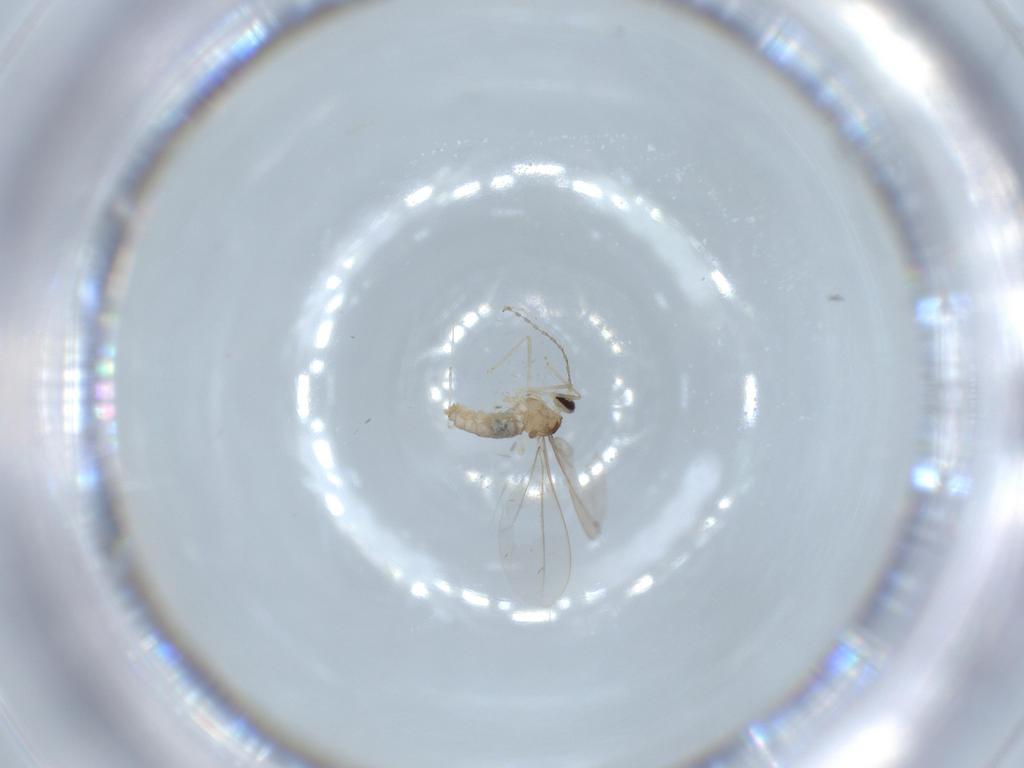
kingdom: Animalia
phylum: Arthropoda
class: Insecta
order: Diptera
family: Cecidomyiidae
